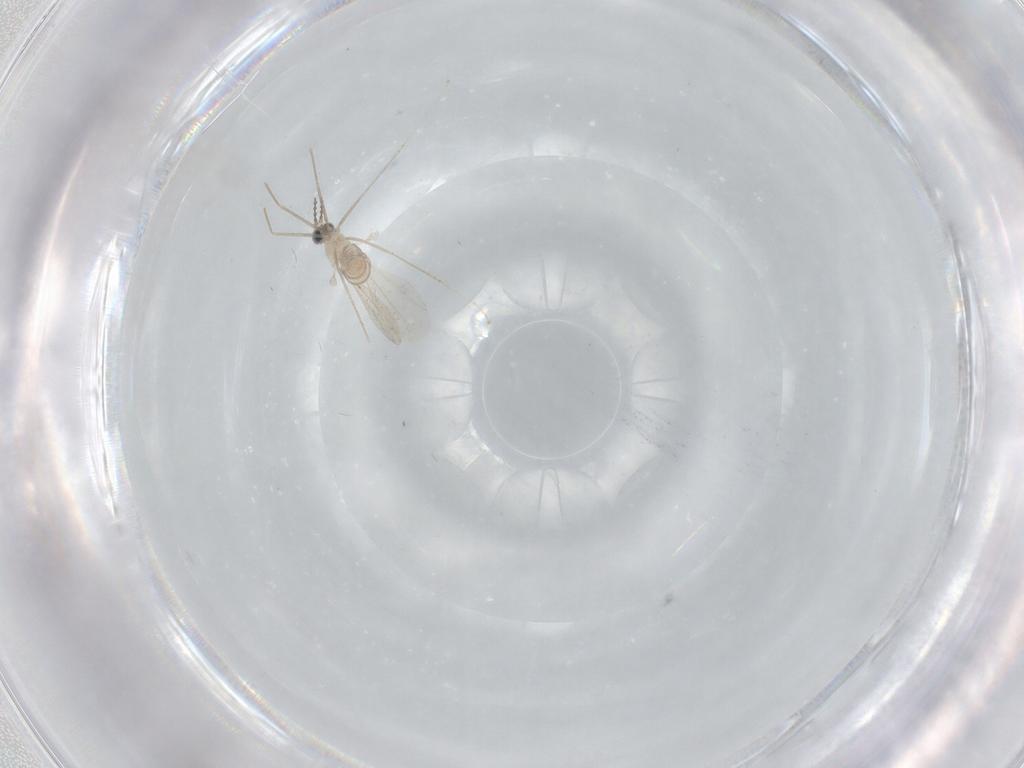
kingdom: Animalia
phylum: Arthropoda
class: Insecta
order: Diptera
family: Cecidomyiidae
